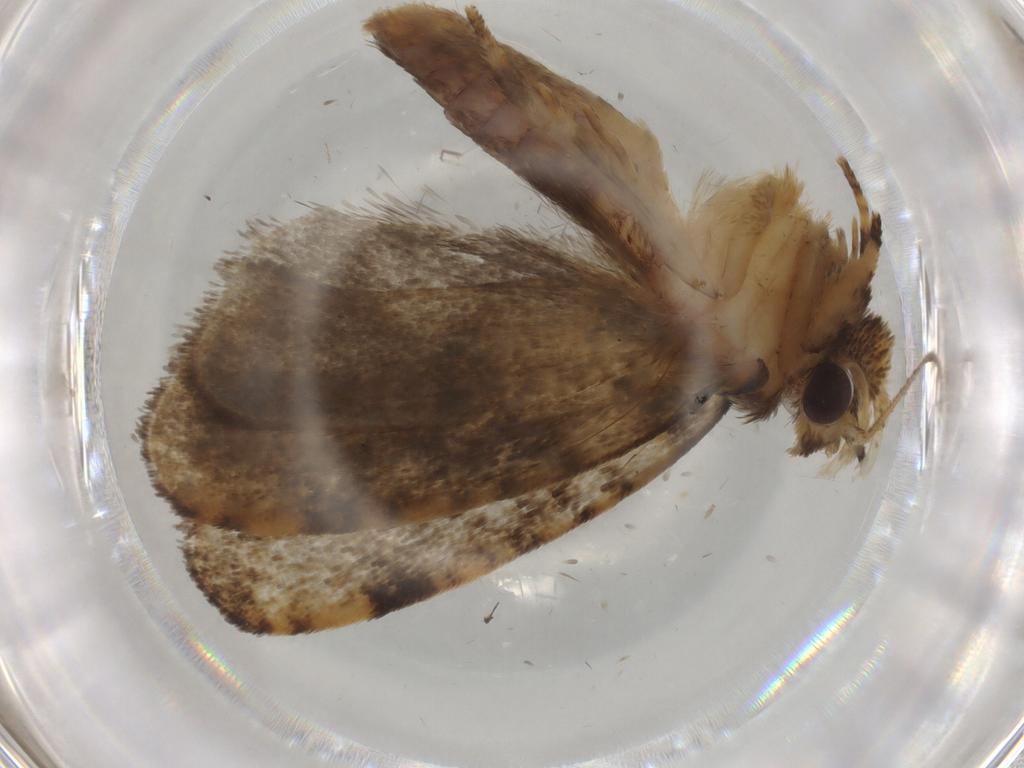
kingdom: Animalia
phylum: Arthropoda
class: Insecta
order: Lepidoptera
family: Tineidae
